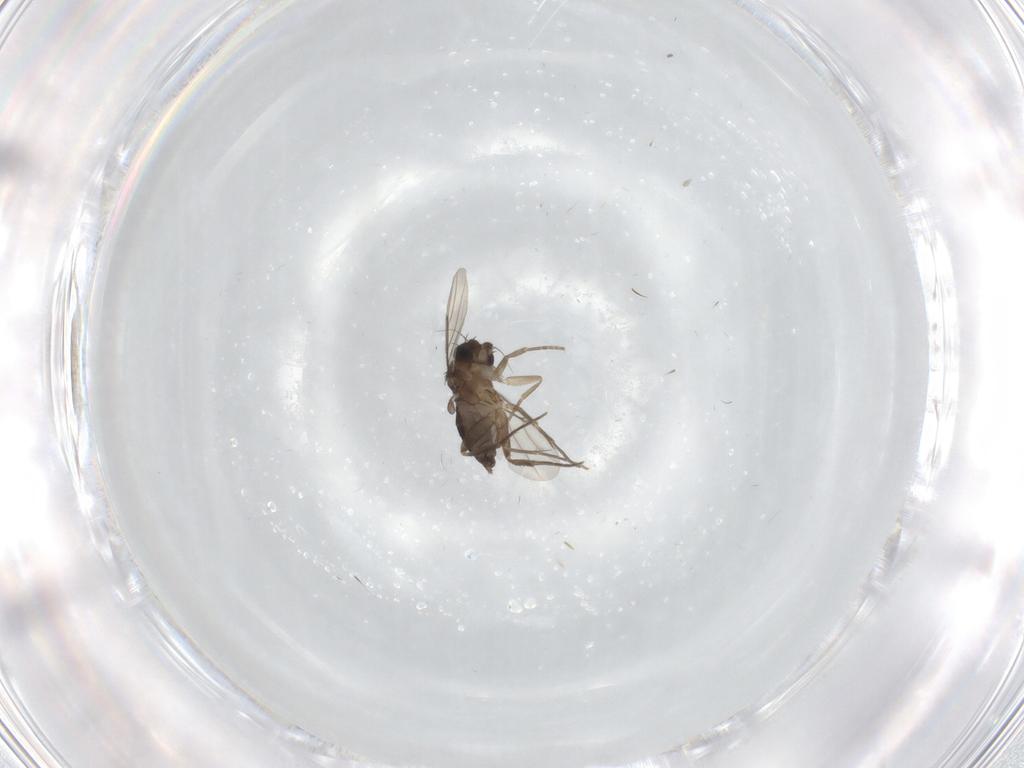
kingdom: Animalia
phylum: Arthropoda
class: Insecta
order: Diptera
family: Phoridae
